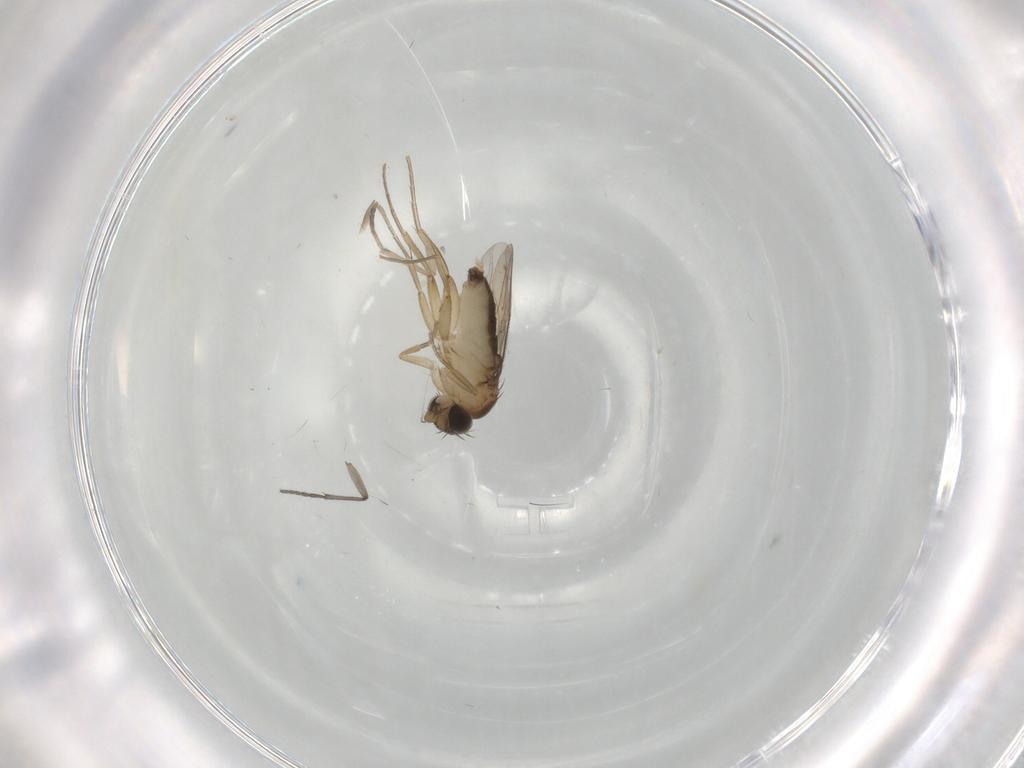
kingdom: Animalia
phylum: Arthropoda
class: Insecta
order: Diptera
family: Phoridae
